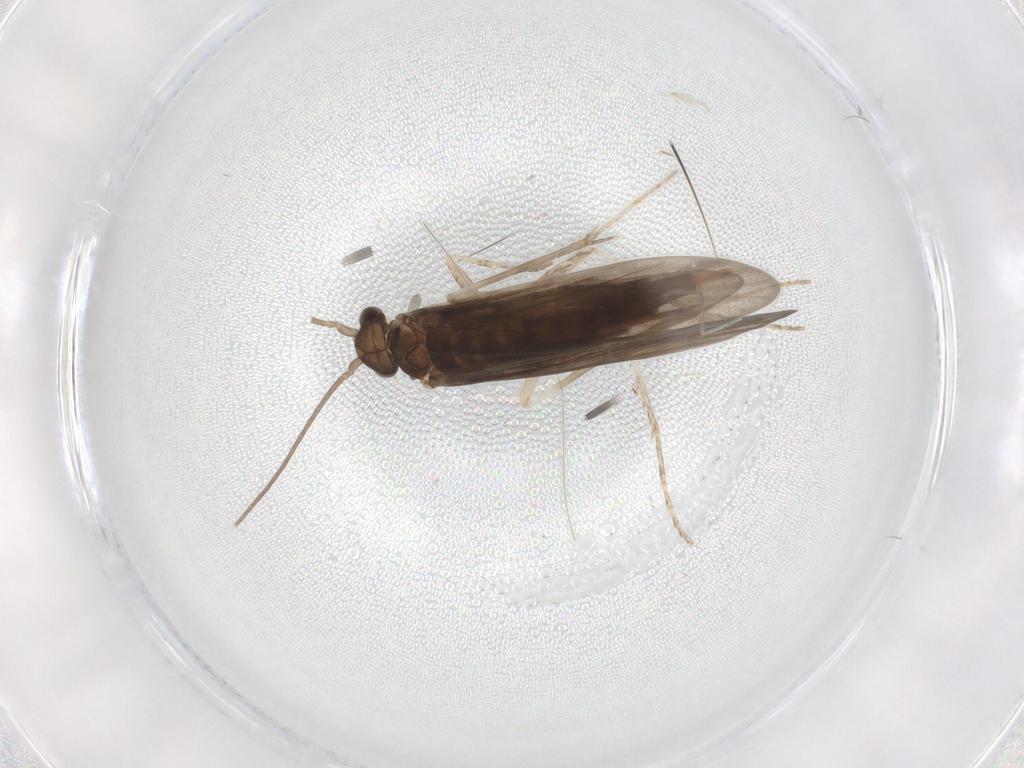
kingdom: Animalia
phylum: Arthropoda
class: Insecta
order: Trichoptera
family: Xiphocentronidae
